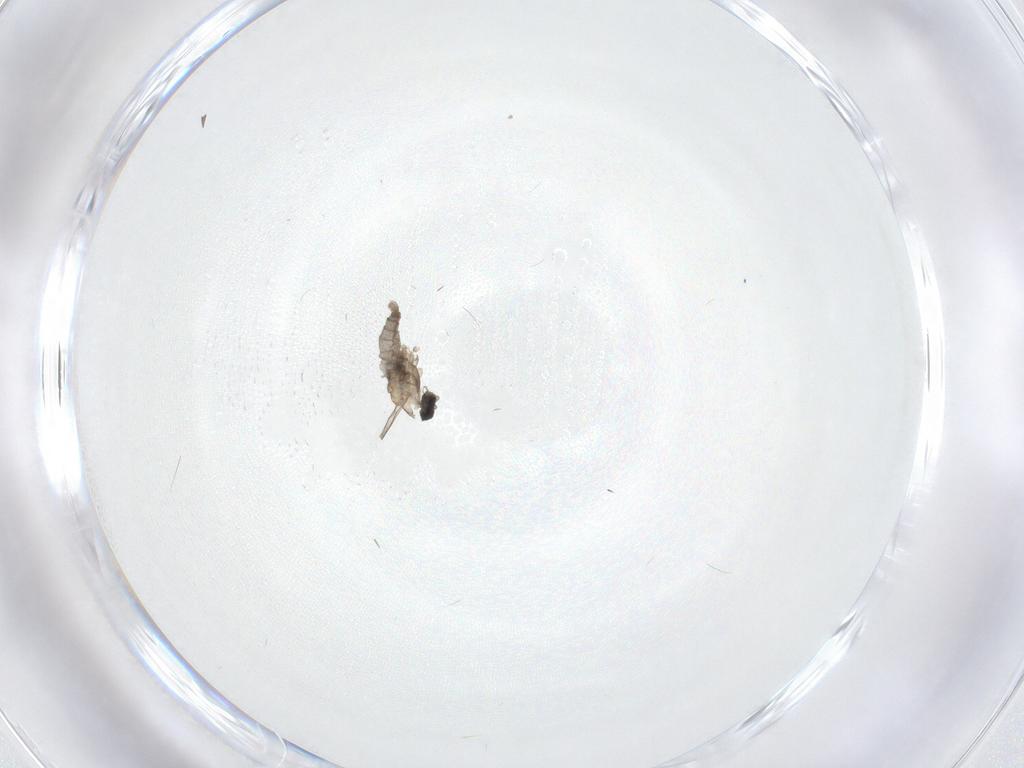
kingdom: Animalia
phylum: Arthropoda
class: Insecta
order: Diptera
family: Cecidomyiidae
